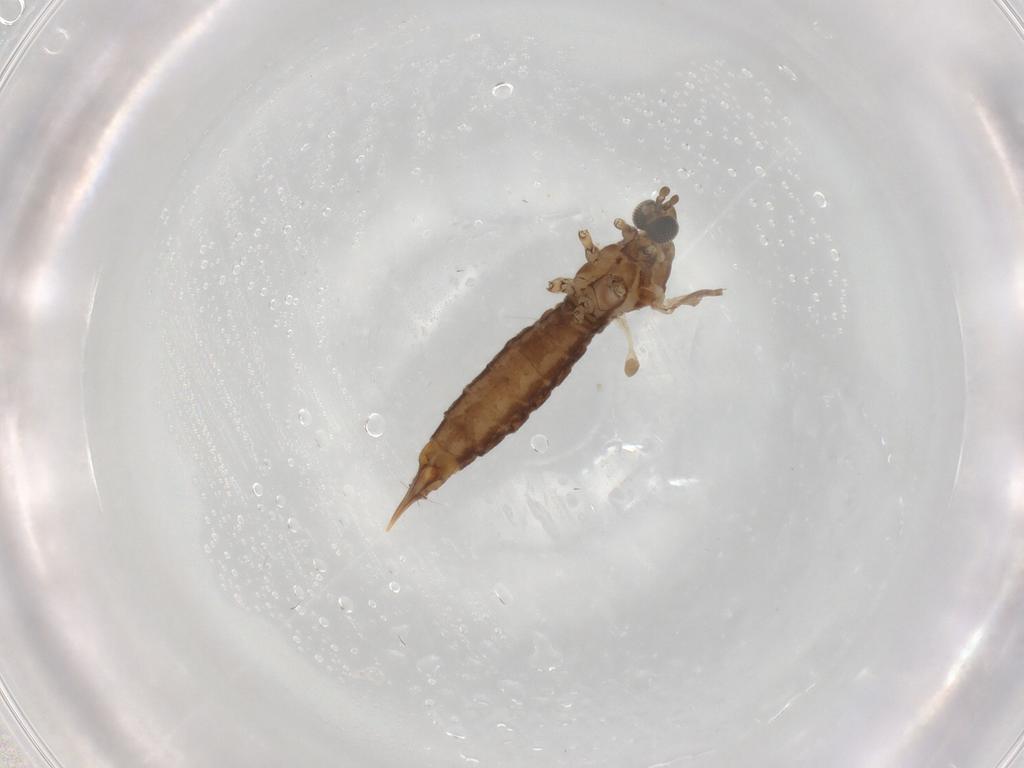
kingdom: Animalia
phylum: Arthropoda
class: Insecta
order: Diptera
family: Limoniidae
